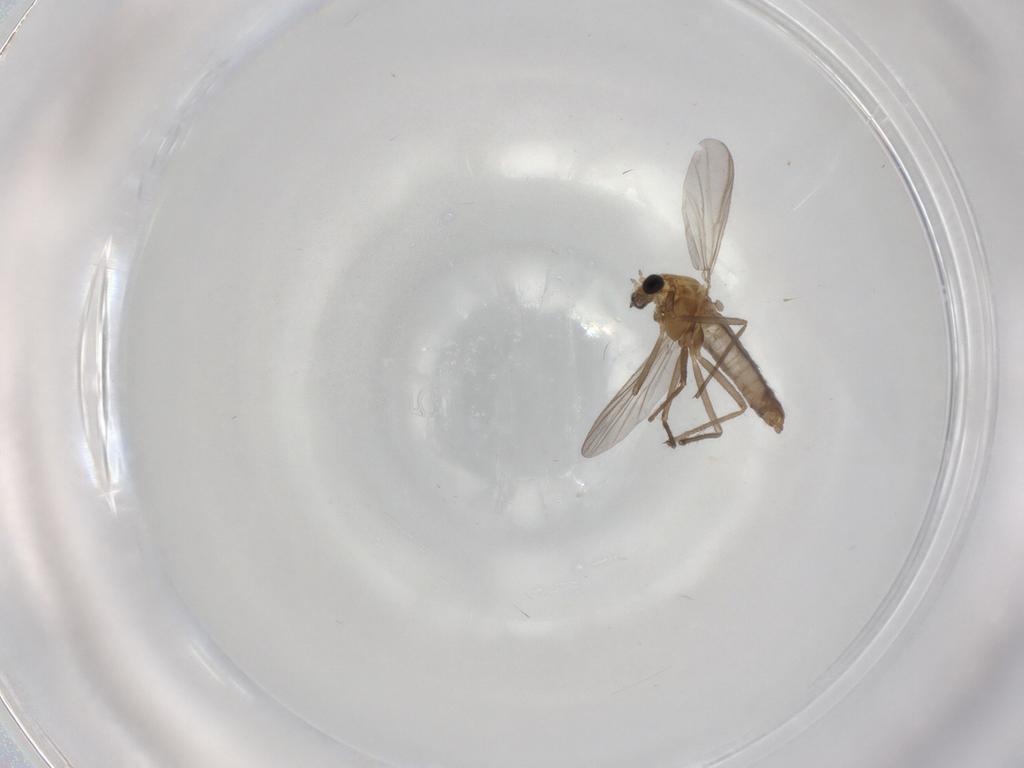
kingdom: Animalia
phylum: Arthropoda
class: Insecta
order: Diptera
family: Chironomidae
